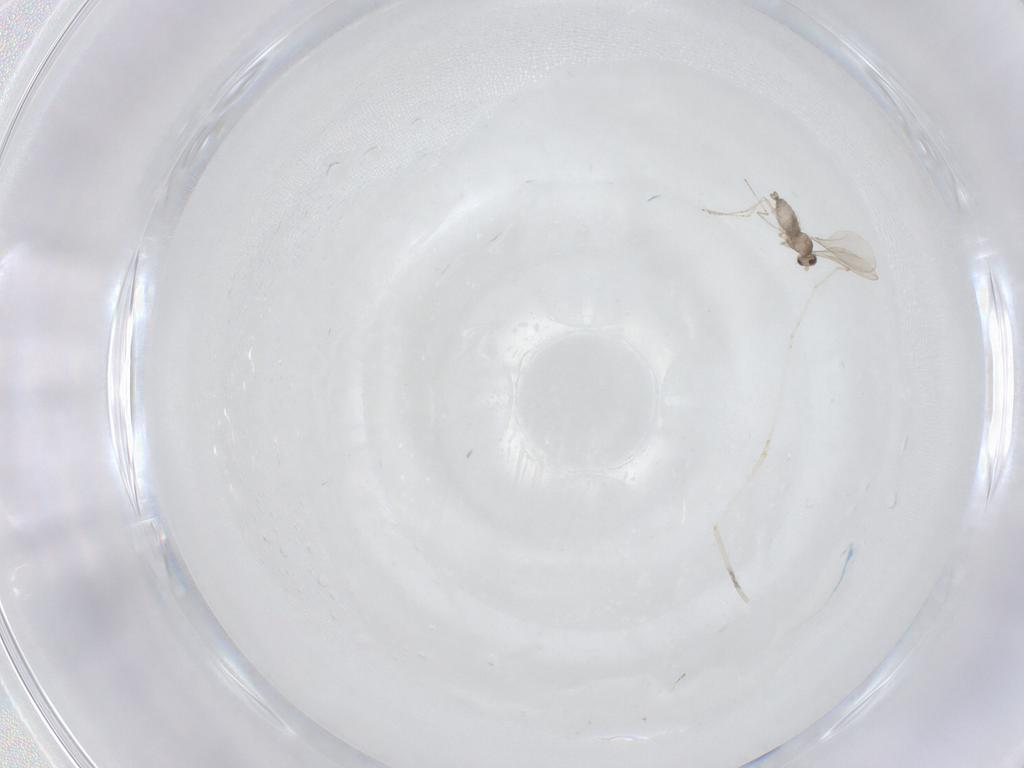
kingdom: Animalia
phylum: Arthropoda
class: Insecta
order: Diptera
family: Cecidomyiidae
